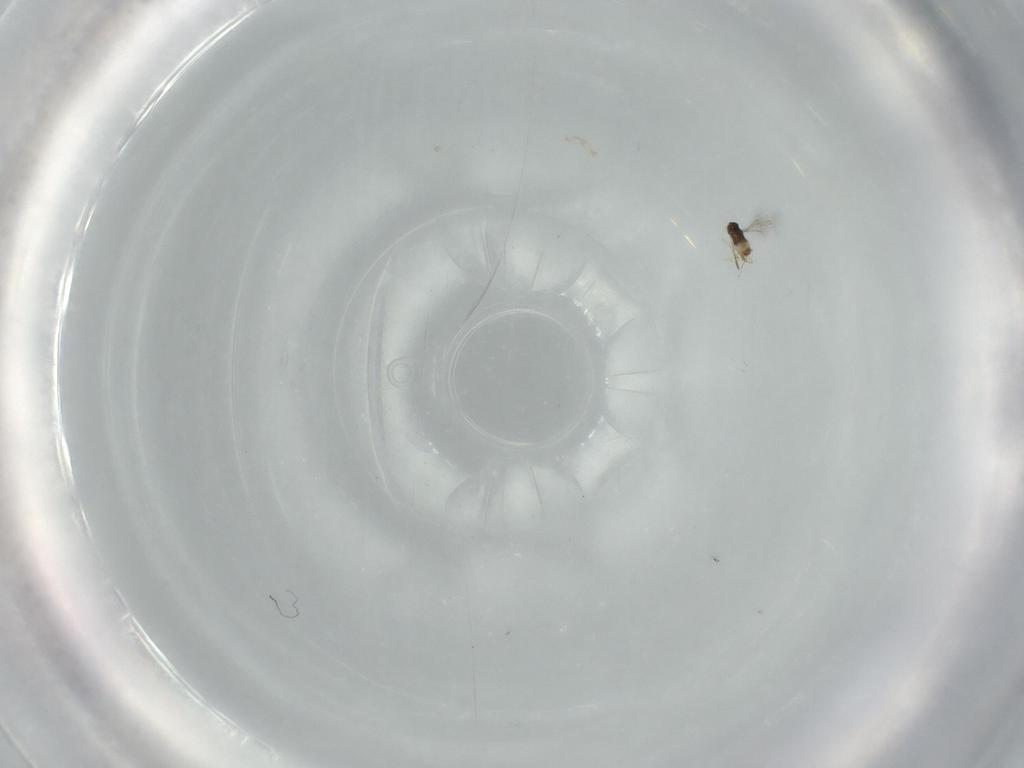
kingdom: Animalia
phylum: Arthropoda
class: Insecta
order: Hymenoptera
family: Mymaridae
